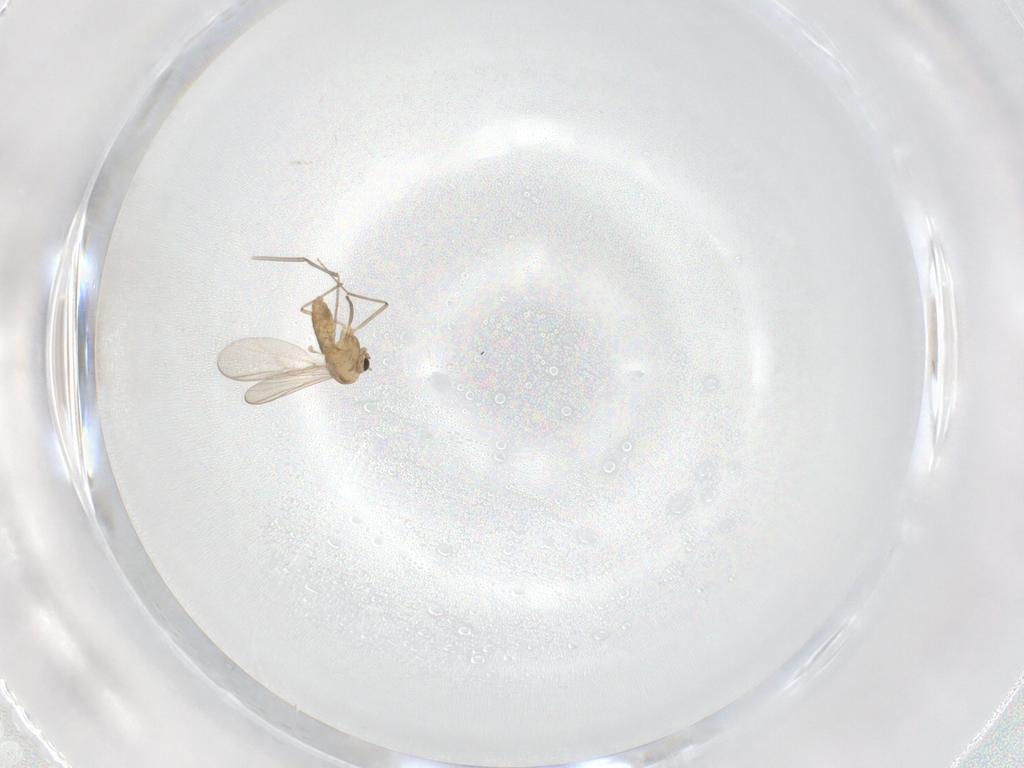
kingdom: Animalia
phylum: Arthropoda
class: Insecta
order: Diptera
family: Chironomidae
